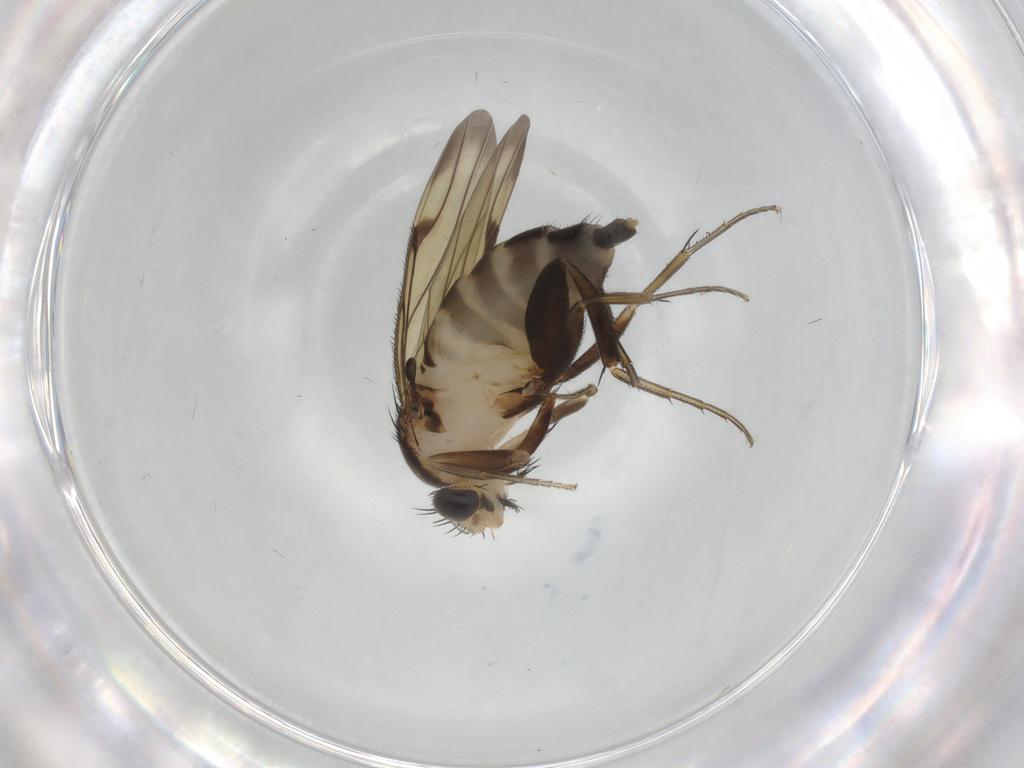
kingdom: Animalia
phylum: Arthropoda
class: Insecta
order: Diptera
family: Phoridae
